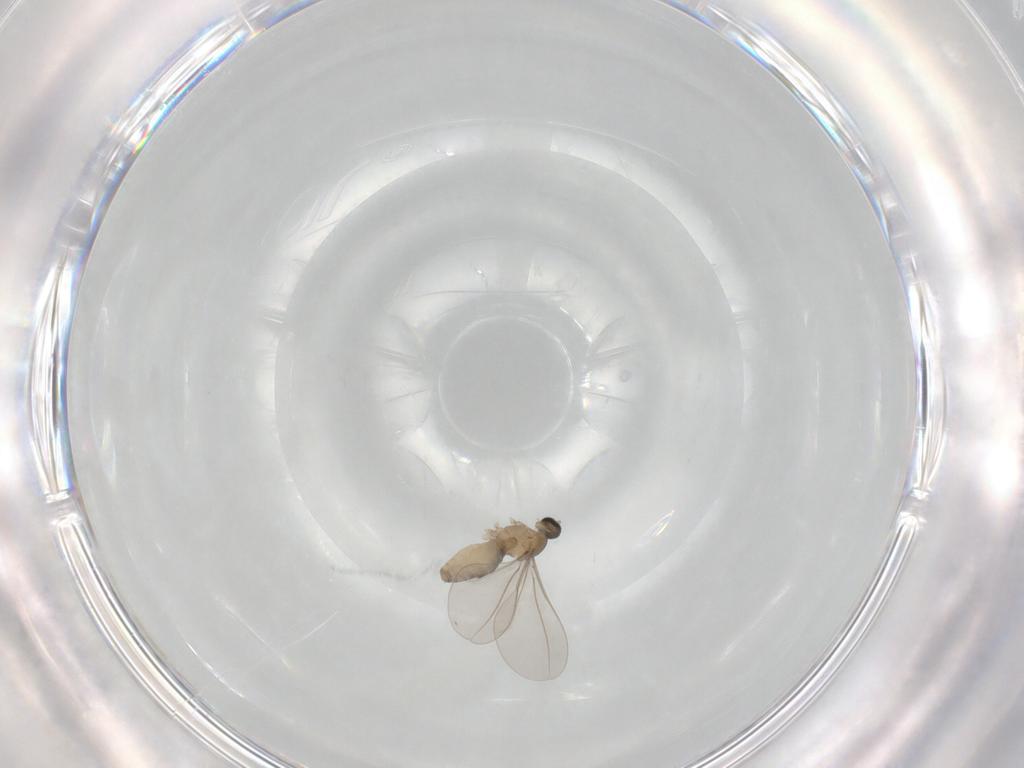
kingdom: Animalia
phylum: Arthropoda
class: Insecta
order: Diptera
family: Cecidomyiidae
